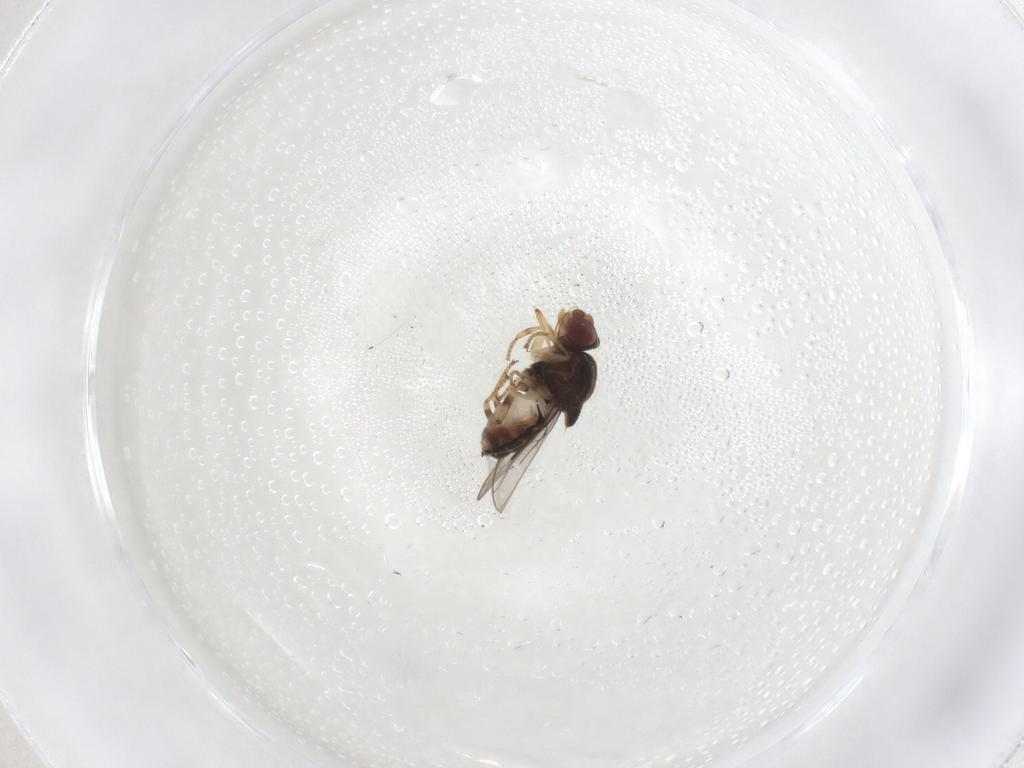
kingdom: Animalia
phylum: Arthropoda
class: Insecta
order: Diptera
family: Chloropidae
